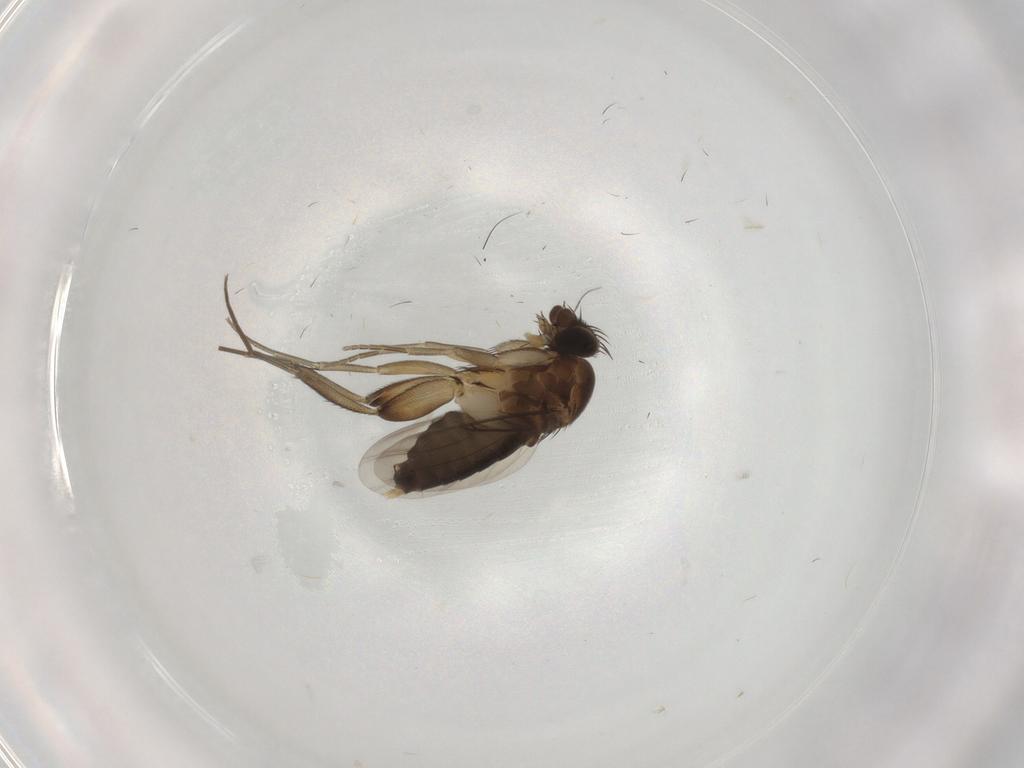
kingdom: Animalia
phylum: Arthropoda
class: Insecta
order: Diptera
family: Phoridae
